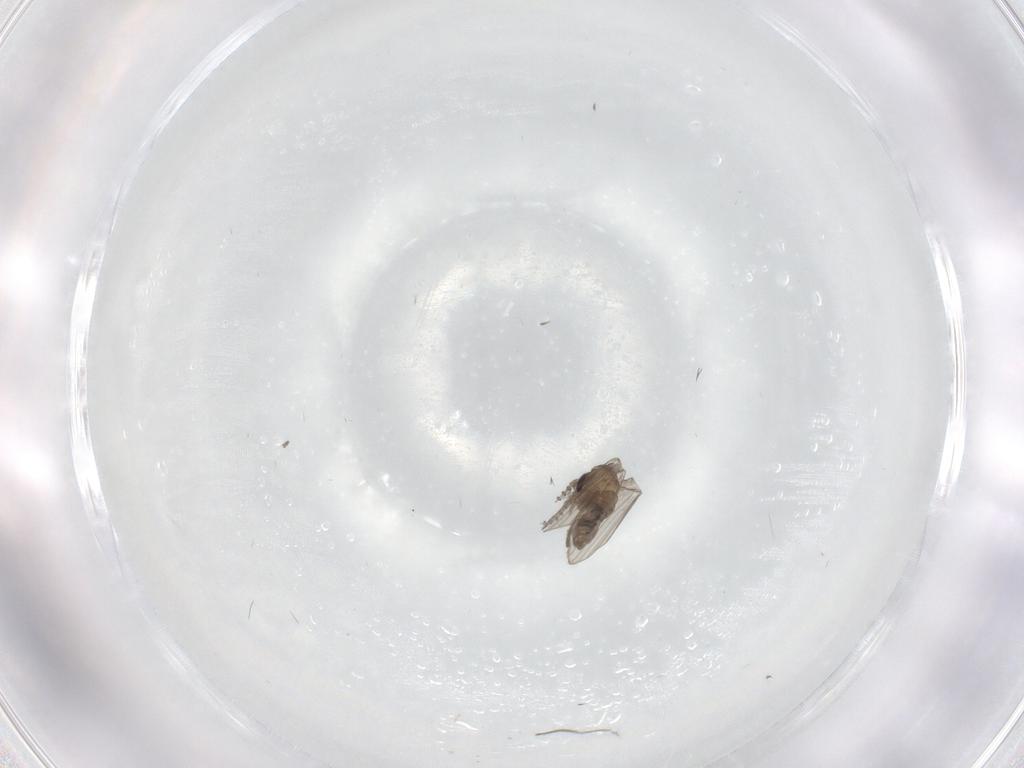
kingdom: Animalia
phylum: Arthropoda
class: Insecta
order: Diptera
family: Psychodidae
